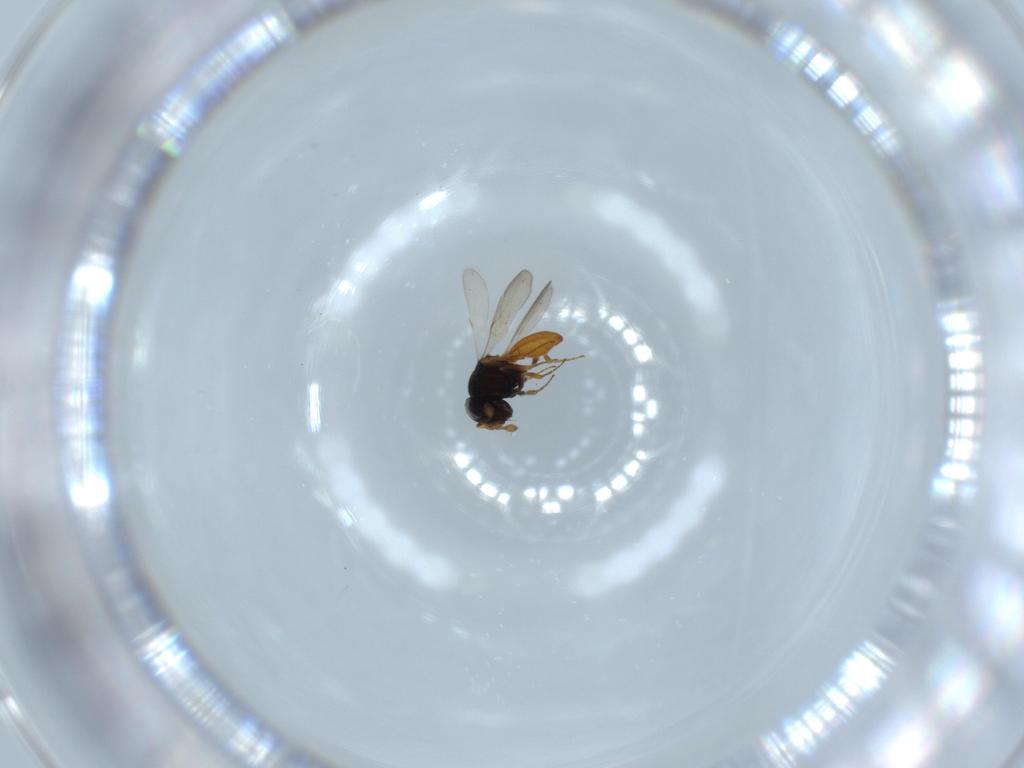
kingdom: Animalia
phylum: Arthropoda
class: Insecta
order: Hymenoptera
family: Scelionidae
